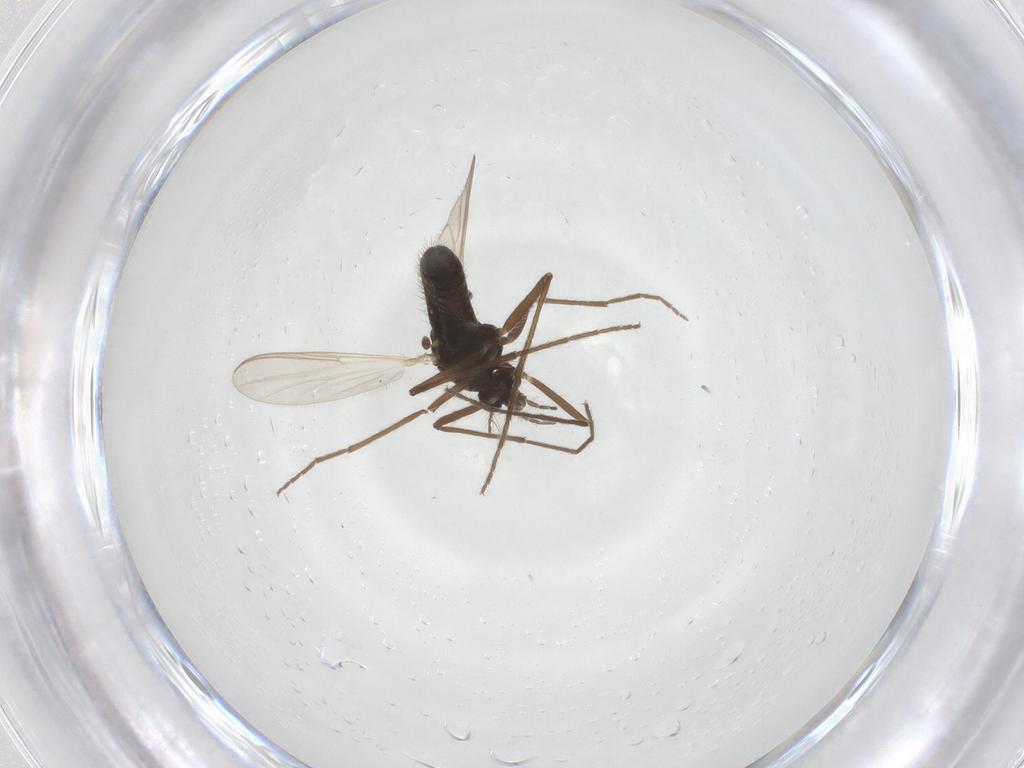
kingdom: Animalia
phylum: Arthropoda
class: Insecta
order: Diptera
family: Chironomidae
